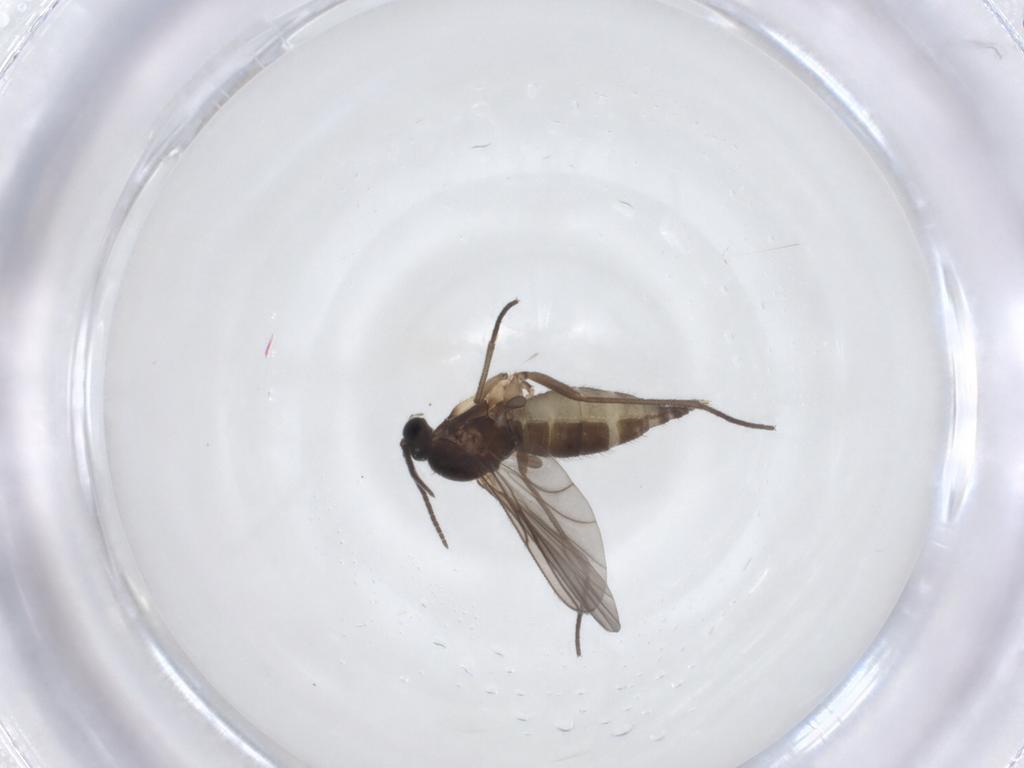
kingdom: Animalia
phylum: Arthropoda
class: Insecta
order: Diptera
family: Sciaridae
